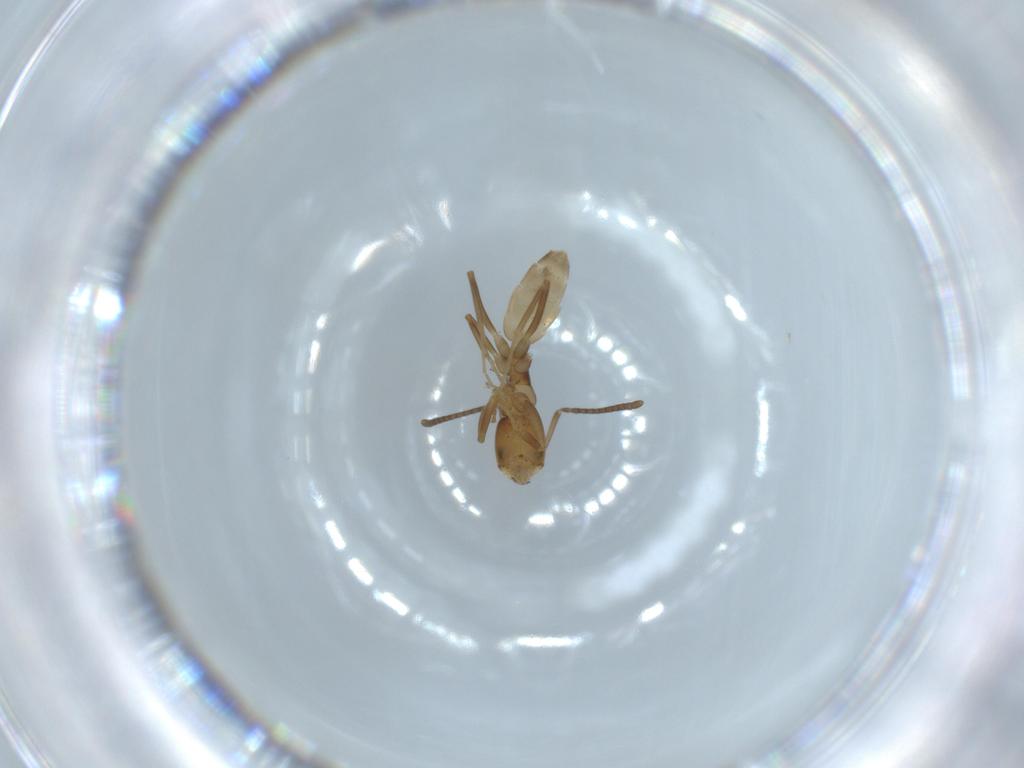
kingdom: Animalia
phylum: Arthropoda
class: Insecta
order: Hymenoptera
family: Formicidae
